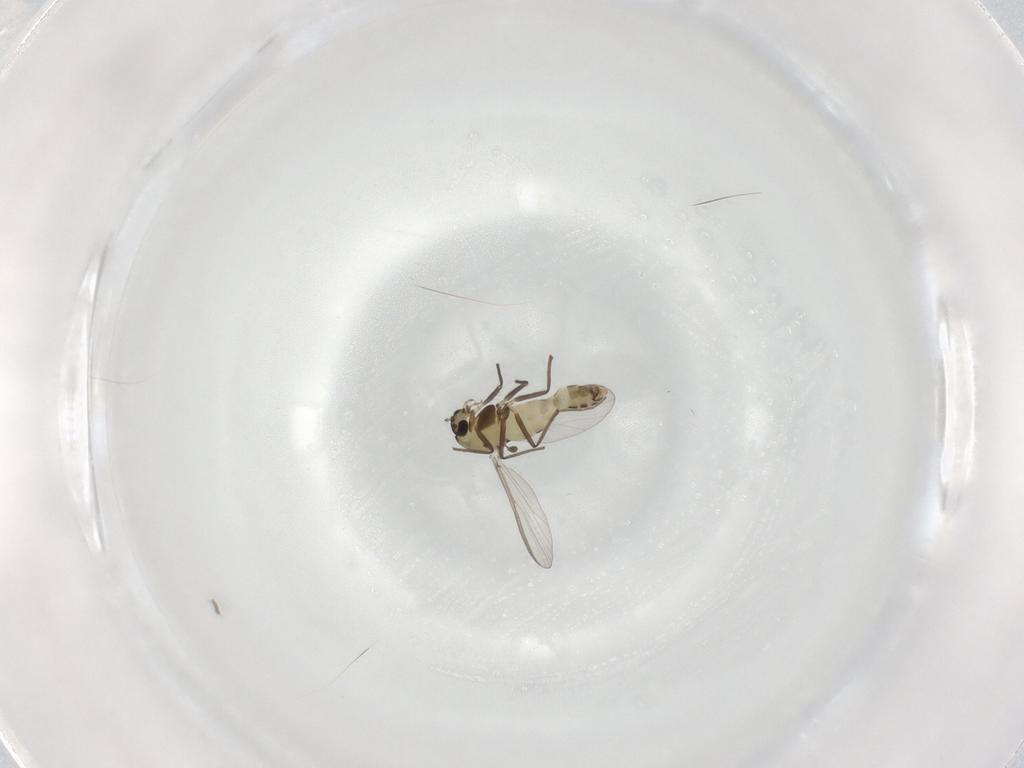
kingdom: Animalia
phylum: Arthropoda
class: Insecta
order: Diptera
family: Chironomidae
